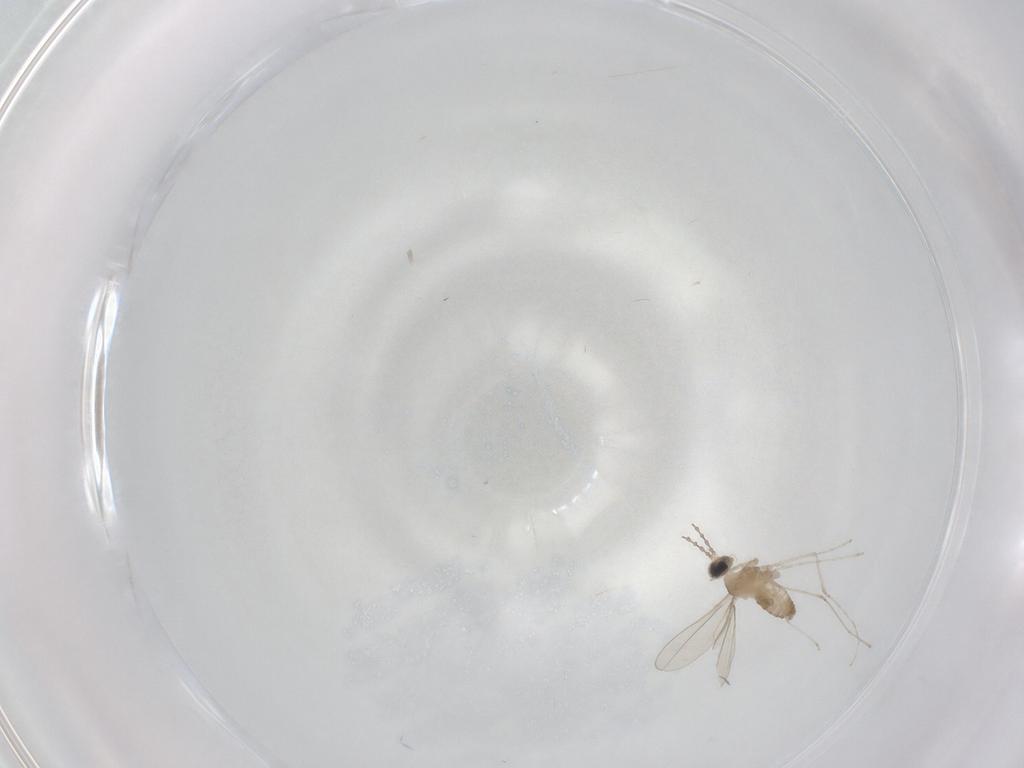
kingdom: Animalia
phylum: Arthropoda
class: Insecta
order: Diptera
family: Cecidomyiidae
